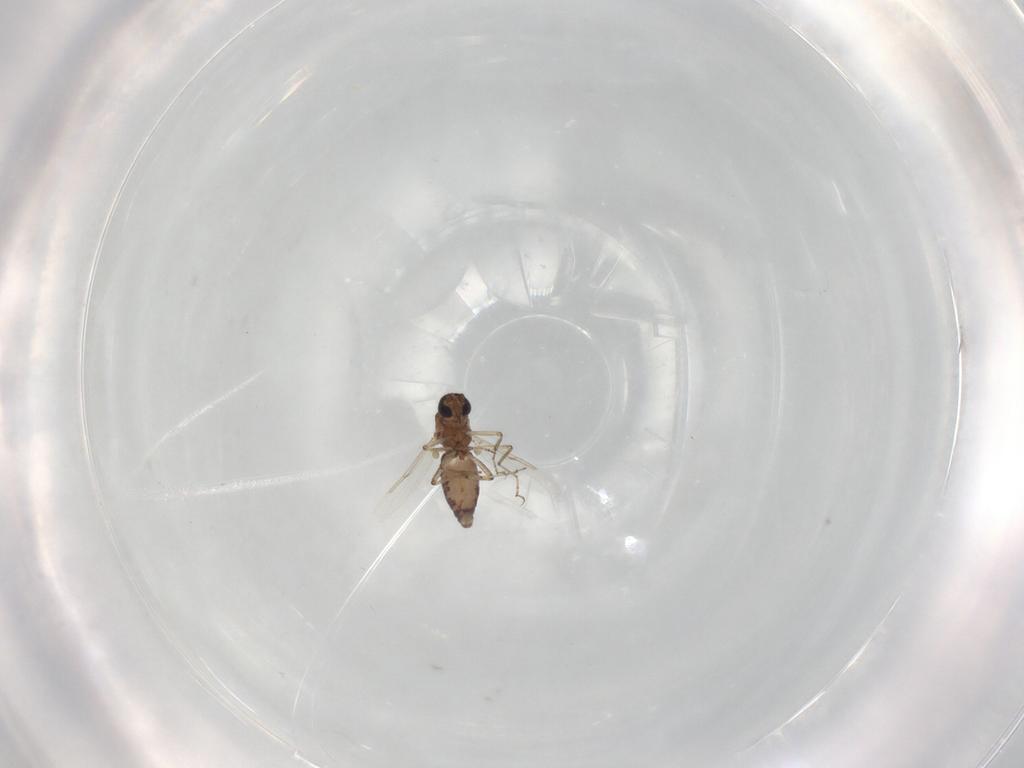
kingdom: Animalia
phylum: Arthropoda
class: Insecta
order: Diptera
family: Ceratopogonidae
